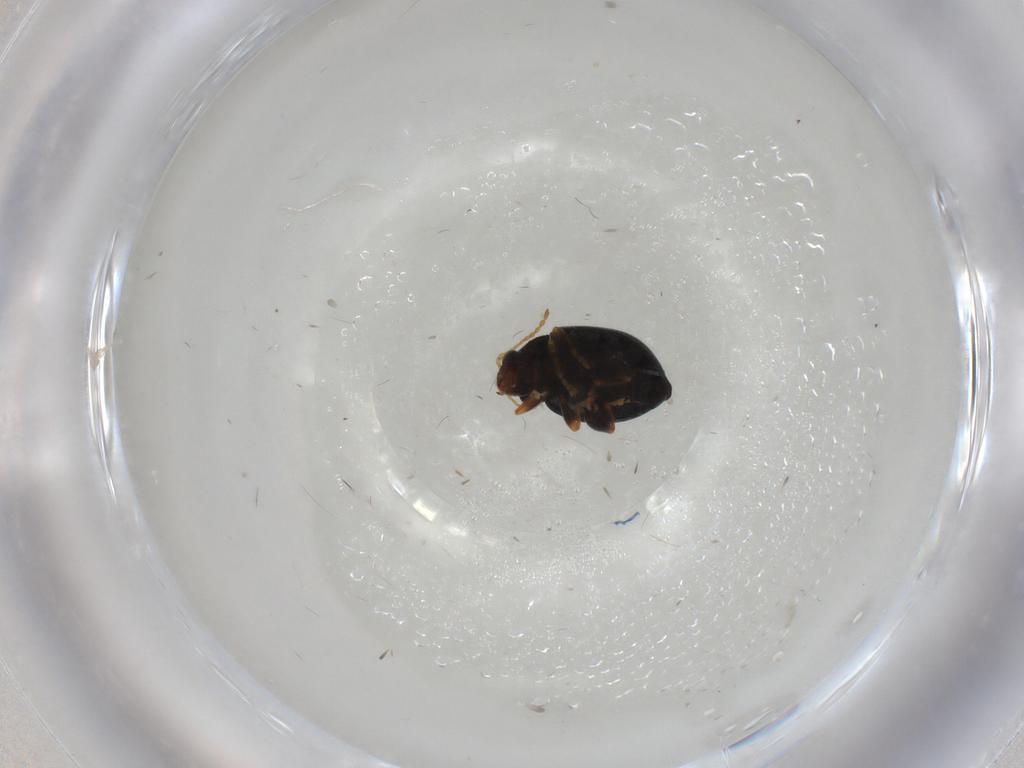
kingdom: Animalia
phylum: Arthropoda
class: Insecta
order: Coleoptera
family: Chrysomelidae
